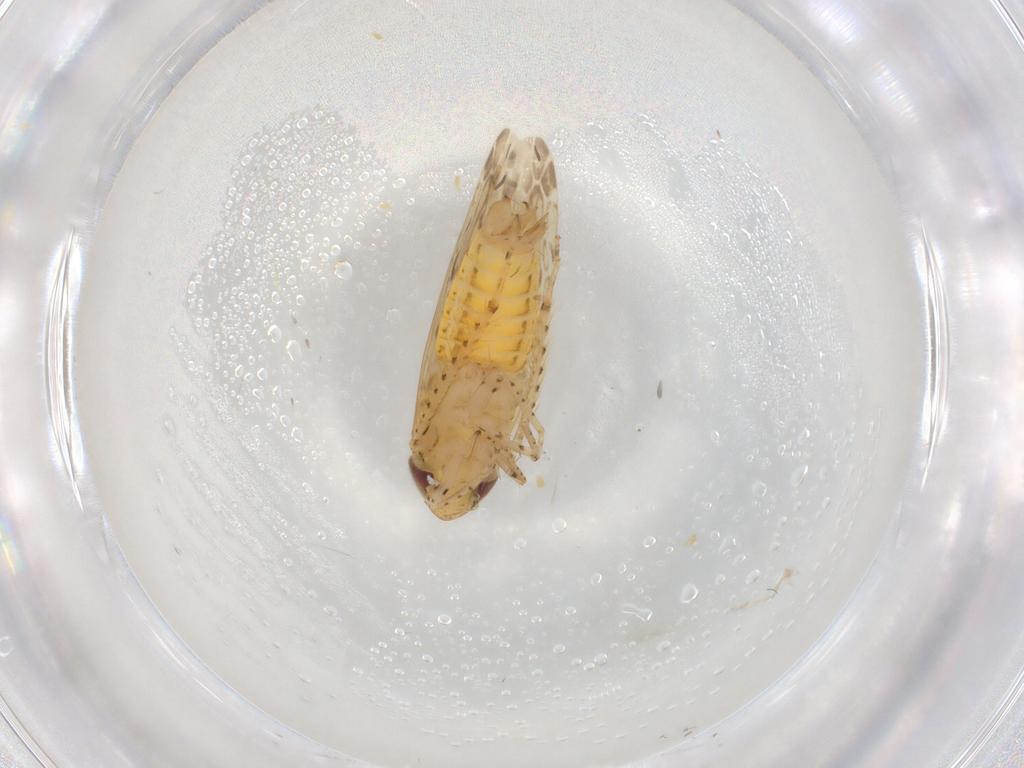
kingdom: Animalia
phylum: Arthropoda
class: Insecta
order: Hemiptera
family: Cicadellidae
